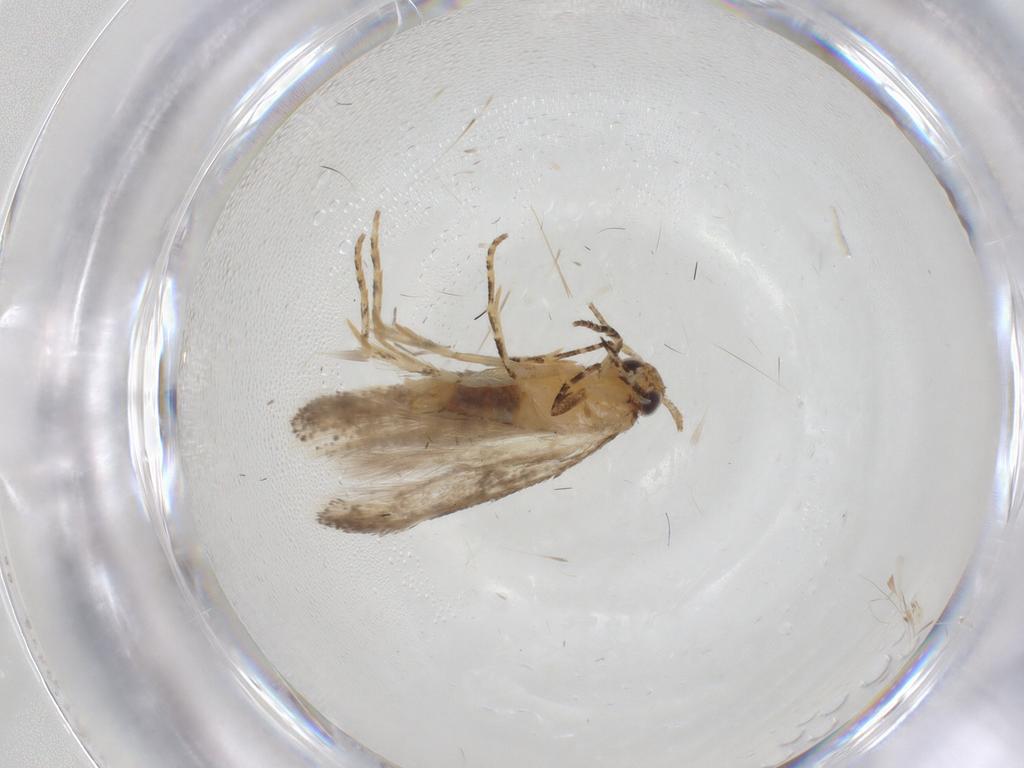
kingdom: Animalia
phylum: Arthropoda
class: Insecta
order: Lepidoptera
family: Gelechiidae
